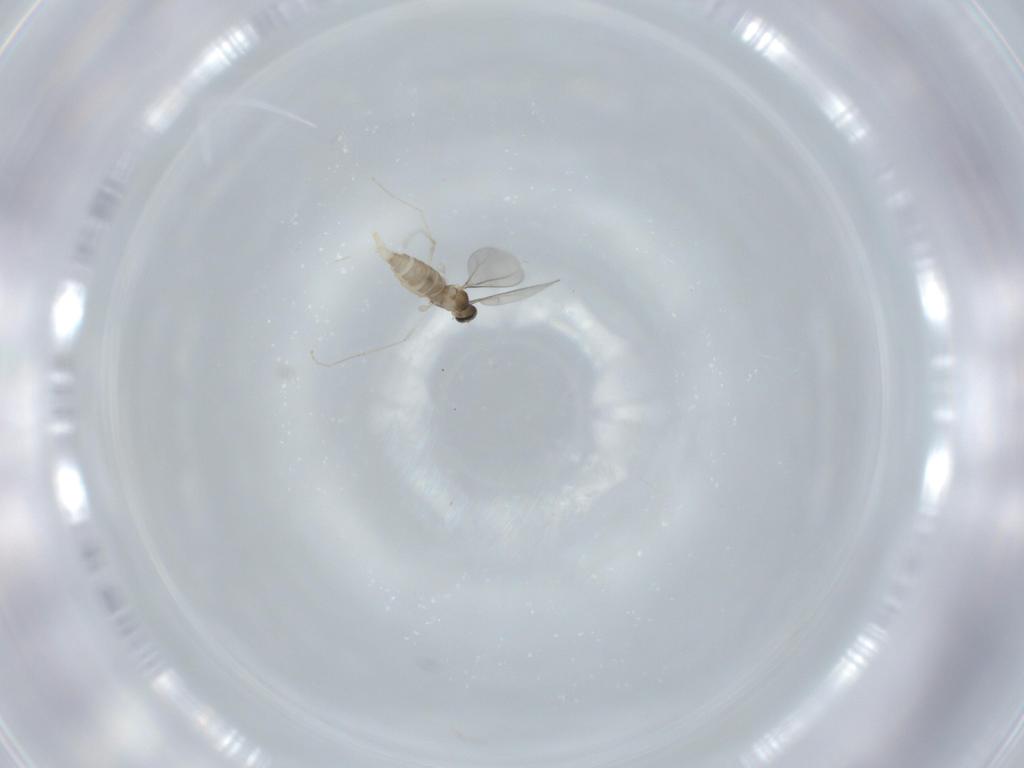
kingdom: Animalia
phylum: Arthropoda
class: Insecta
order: Diptera
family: Cecidomyiidae
